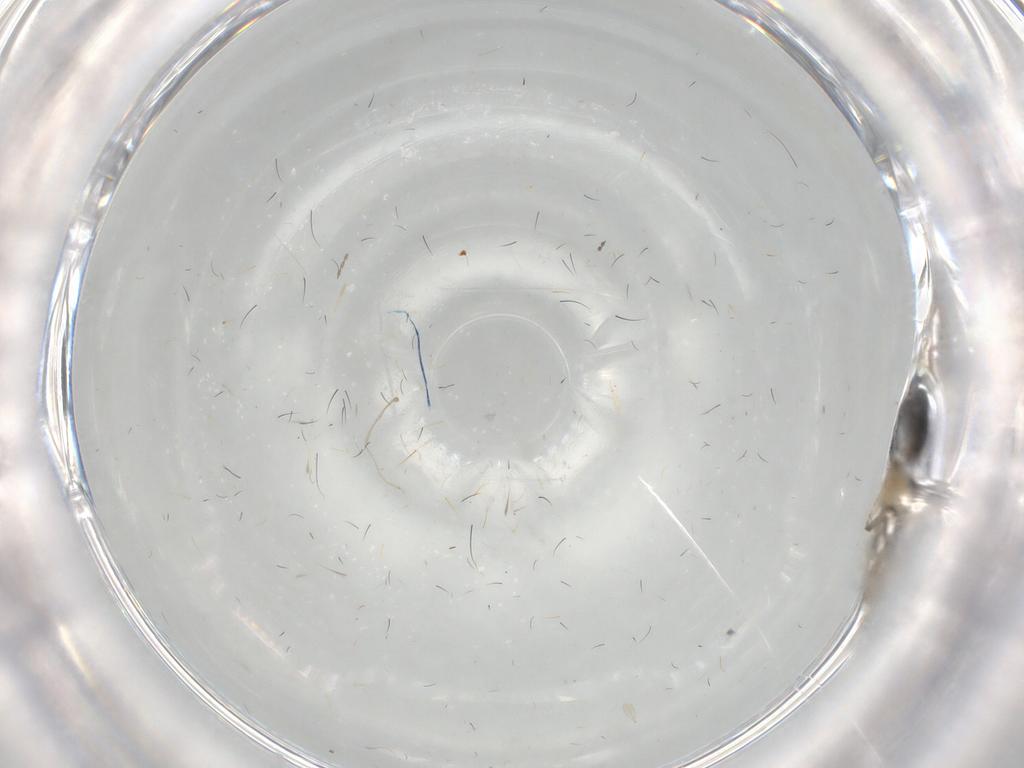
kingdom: Animalia
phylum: Arthropoda
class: Insecta
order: Diptera
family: Dolichopodidae
